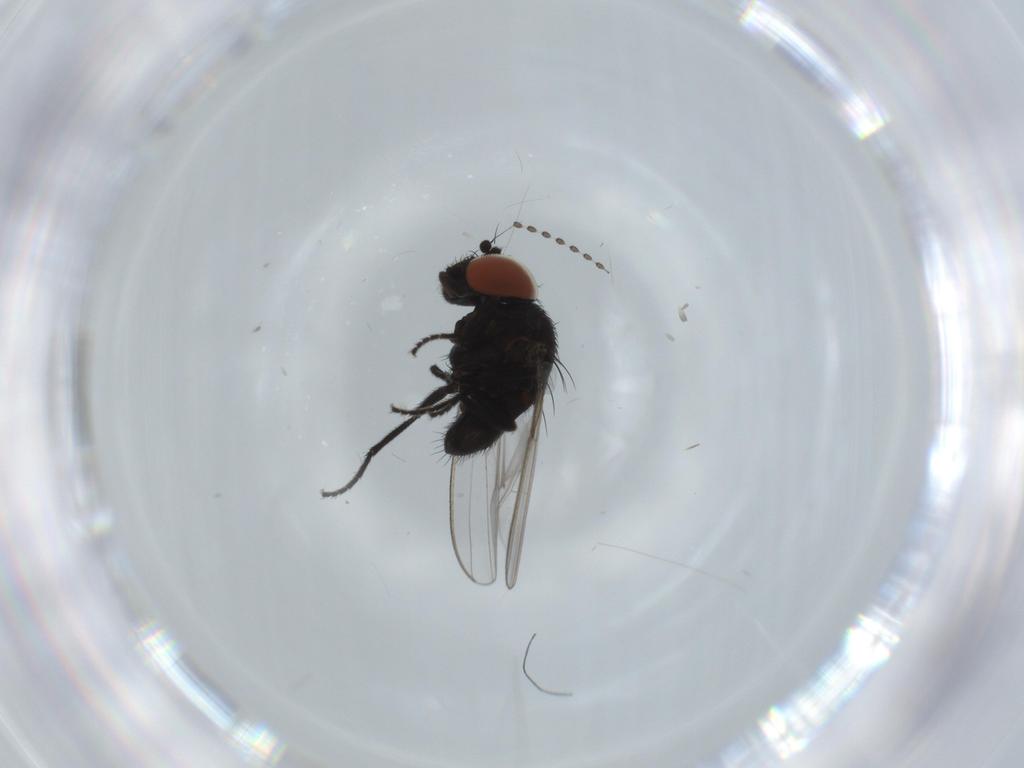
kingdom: Animalia
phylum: Arthropoda
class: Insecta
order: Diptera
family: Milichiidae
